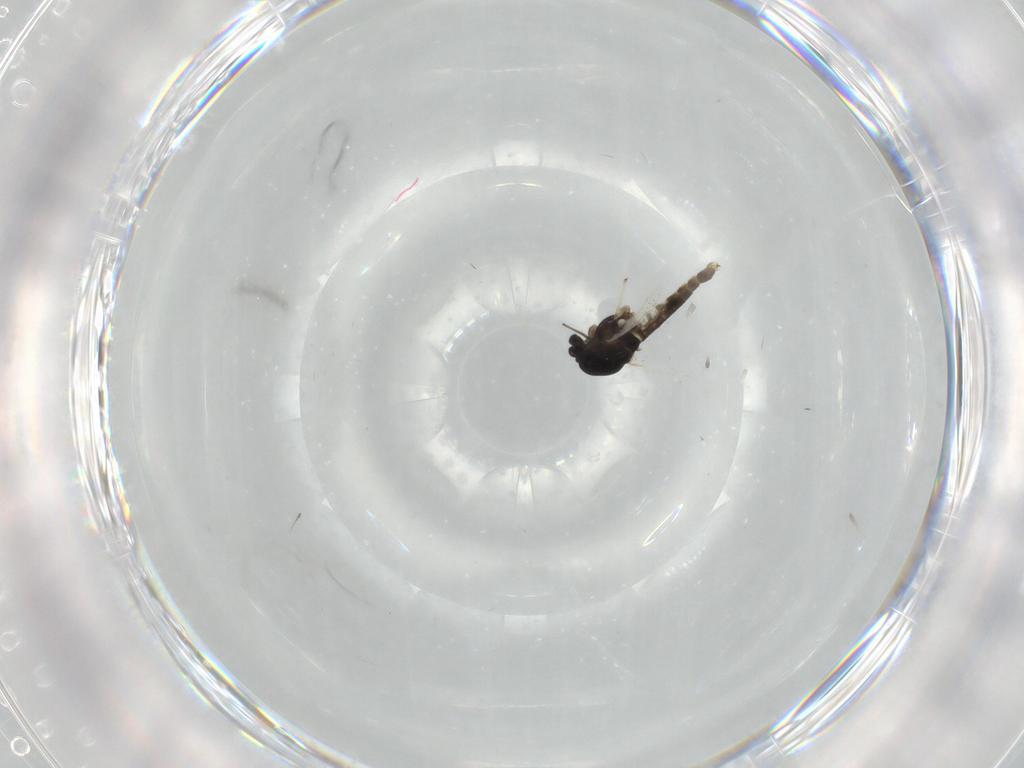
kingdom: Animalia
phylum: Arthropoda
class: Insecta
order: Diptera
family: Chironomidae
